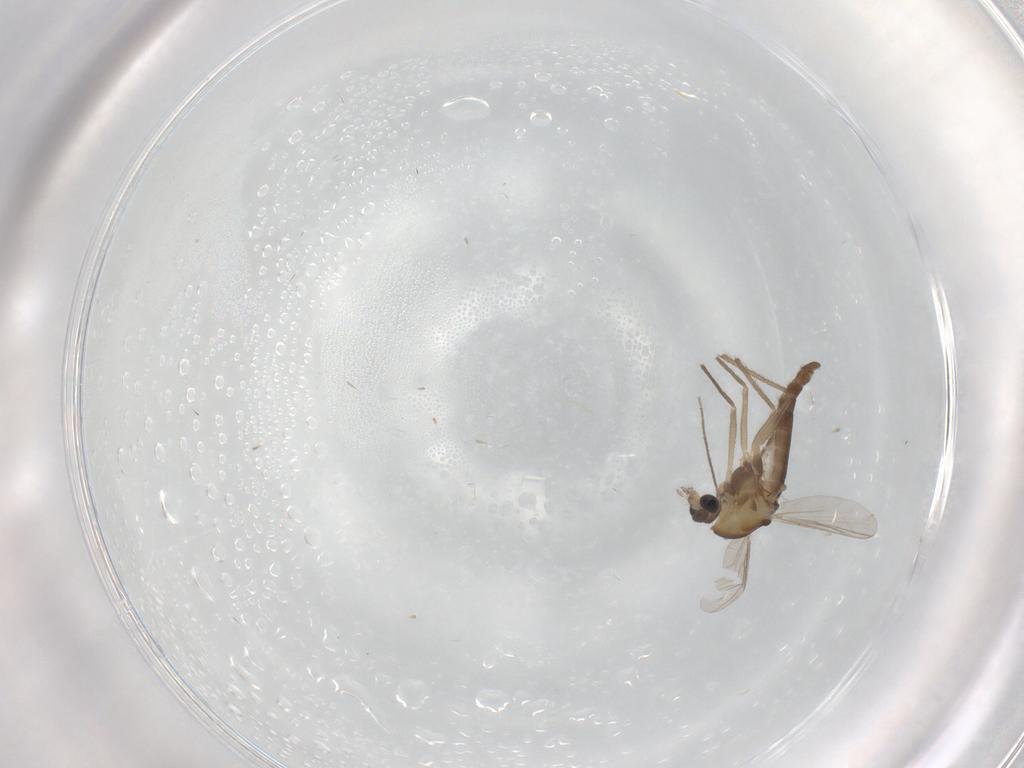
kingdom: Animalia
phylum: Arthropoda
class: Insecta
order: Diptera
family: Chironomidae
